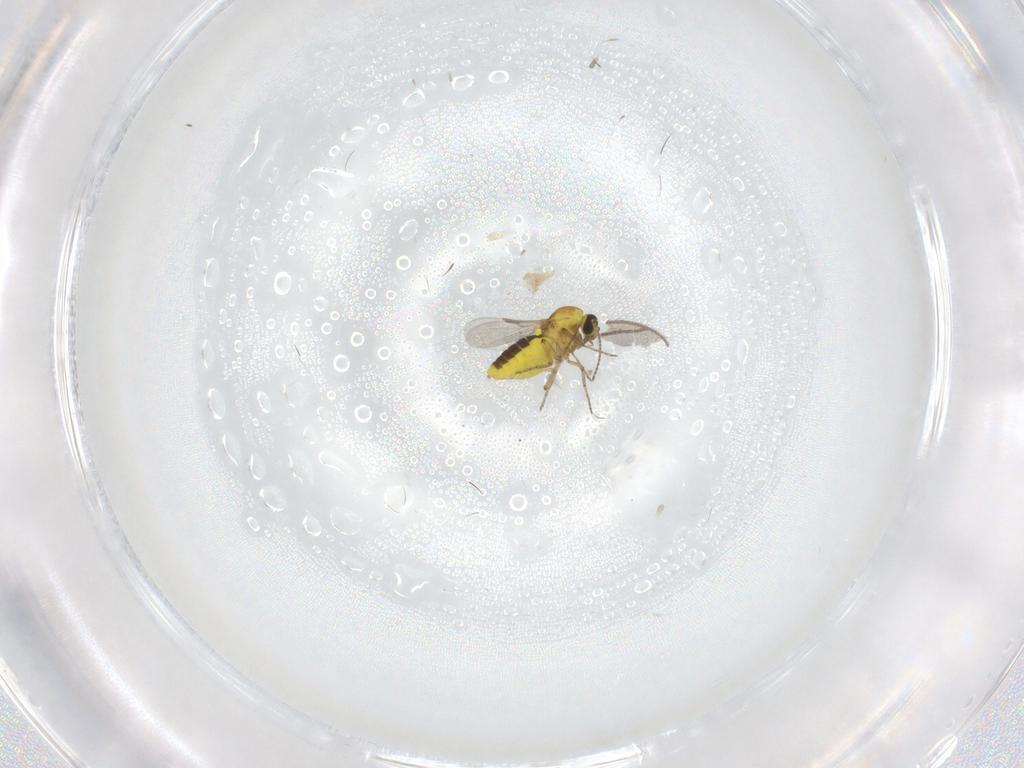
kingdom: Animalia
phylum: Arthropoda
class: Insecta
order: Diptera
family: Ceratopogonidae
